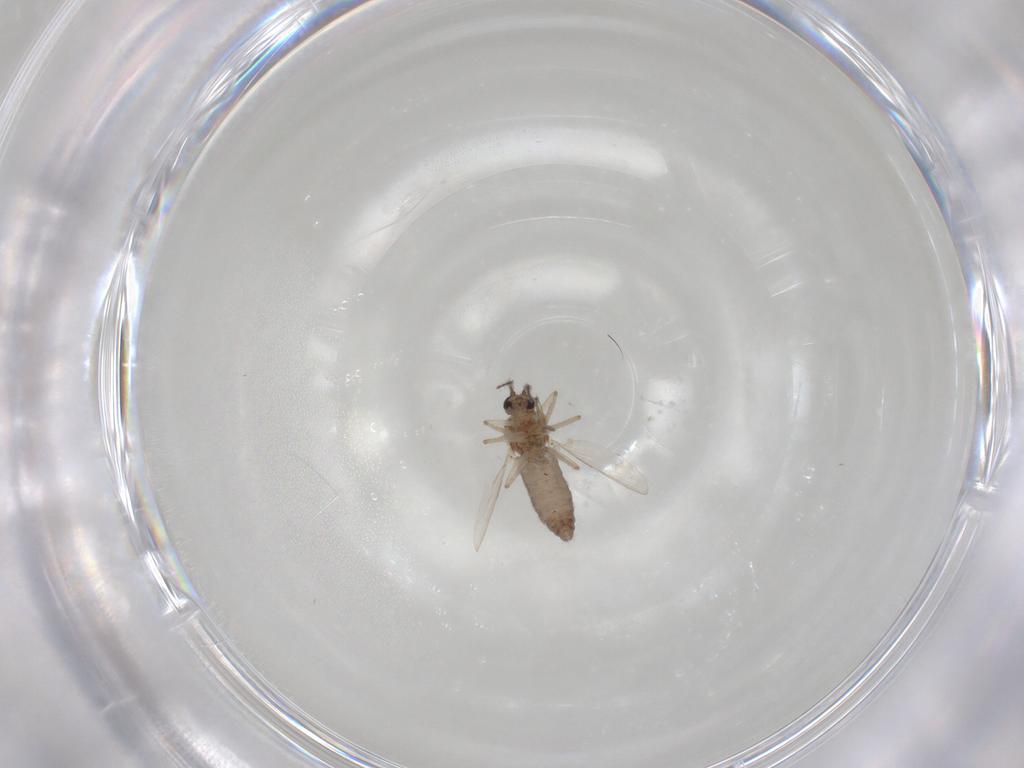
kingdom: Animalia
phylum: Arthropoda
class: Insecta
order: Diptera
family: Ceratopogonidae
